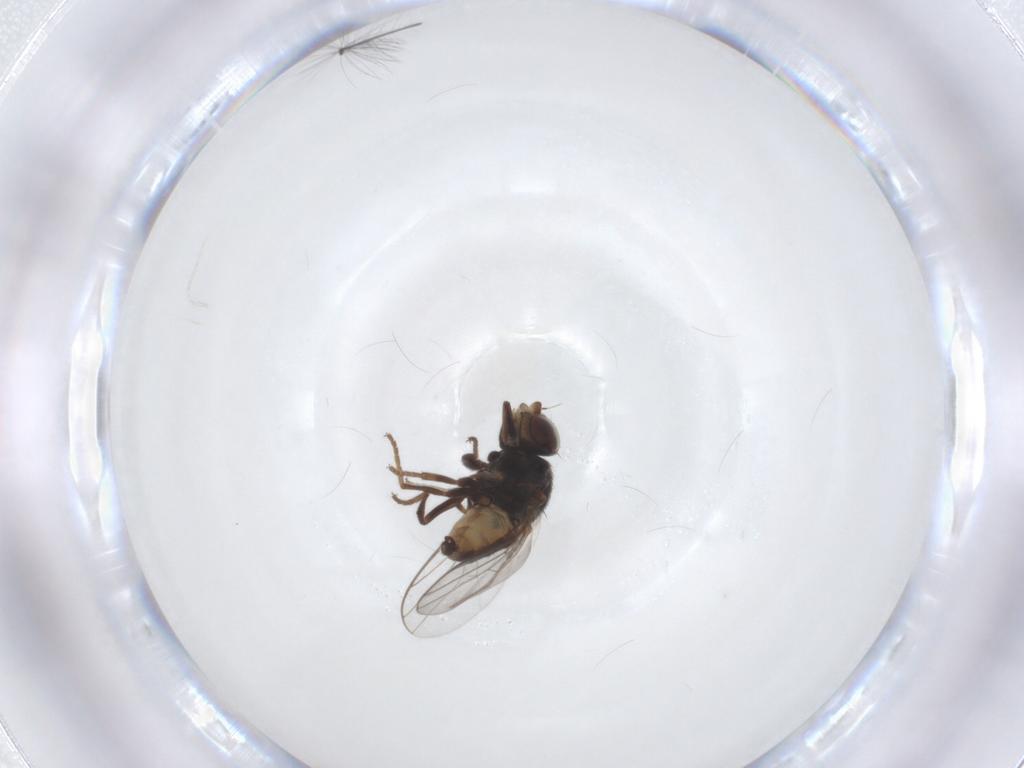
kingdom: Animalia
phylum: Arthropoda
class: Insecta
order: Diptera
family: Chloropidae
